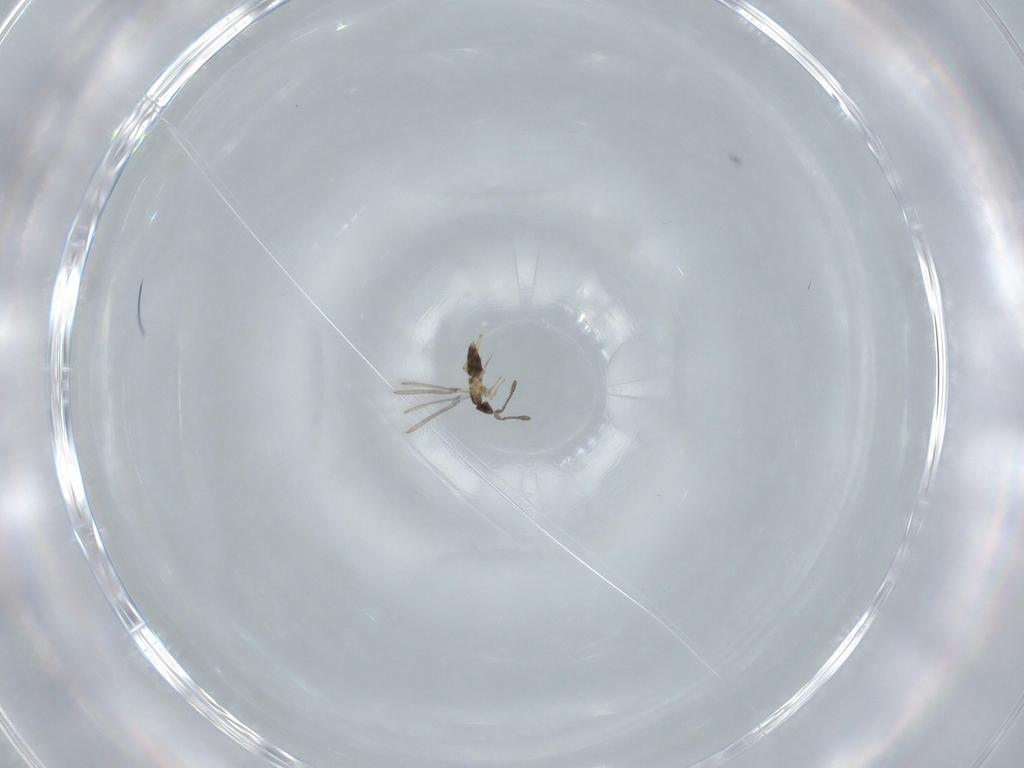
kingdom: Animalia
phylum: Arthropoda
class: Insecta
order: Hymenoptera
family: Mymaridae
